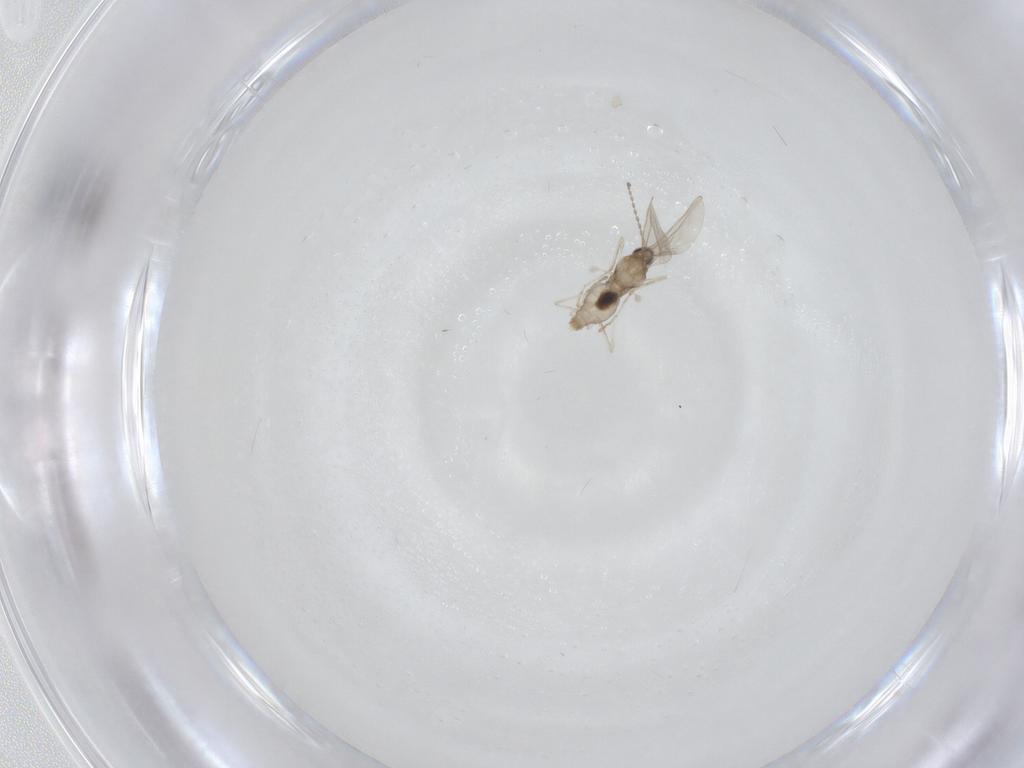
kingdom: Animalia
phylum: Arthropoda
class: Insecta
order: Diptera
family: Cecidomyiidae
